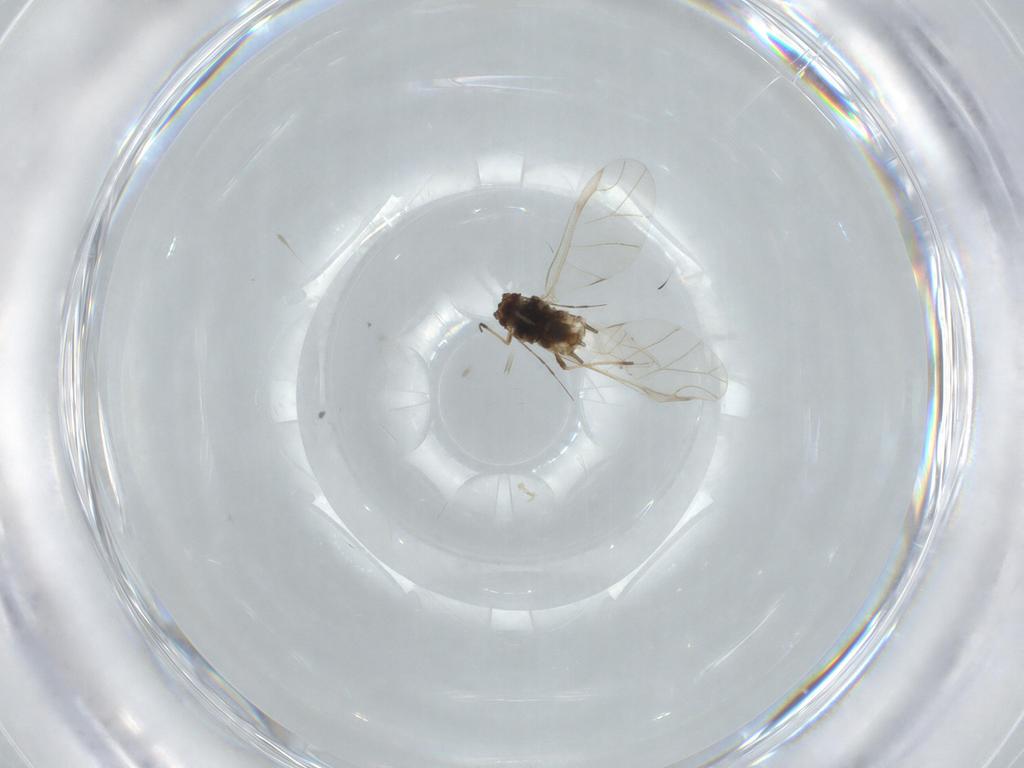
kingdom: Animalia
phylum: Arthropoda
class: Insecta
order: Hemiptera
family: Aphididae
